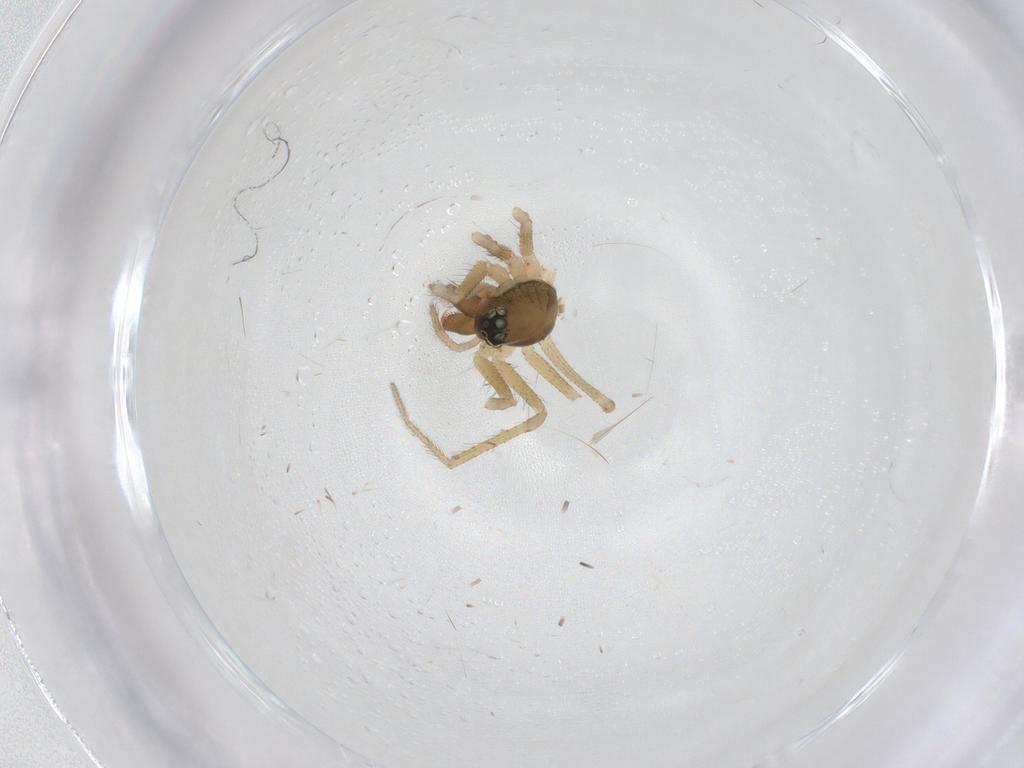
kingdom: Animalia
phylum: Arthropoda
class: Arachnida
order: Araneae
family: Linyphiidae
